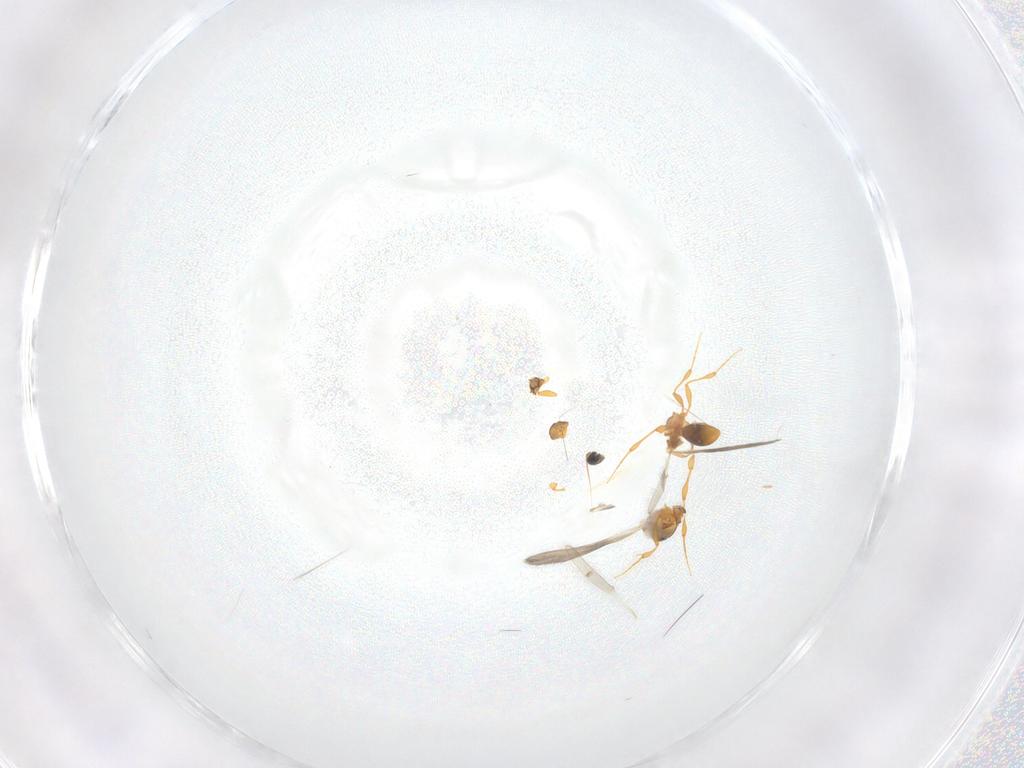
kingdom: Animalia
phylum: Arthropoda
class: Insecta
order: Hymenoptera
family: Platygastridae
